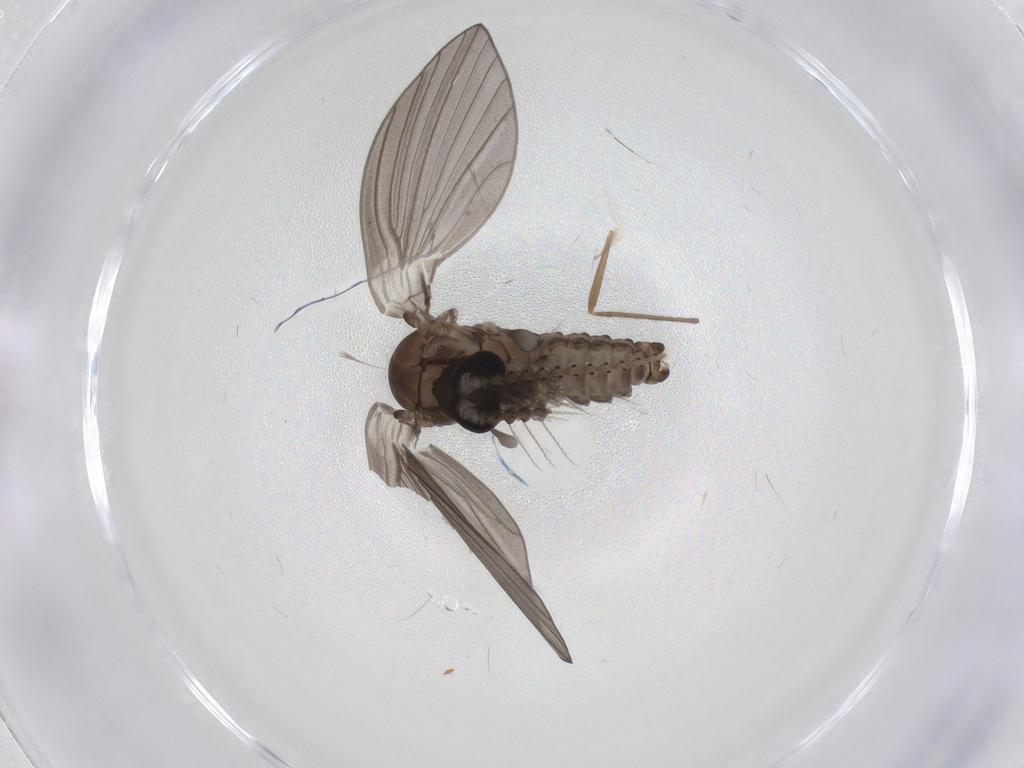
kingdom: Animalia
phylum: Arthropoda
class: Insecta
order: Diptera
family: Psychodidae
